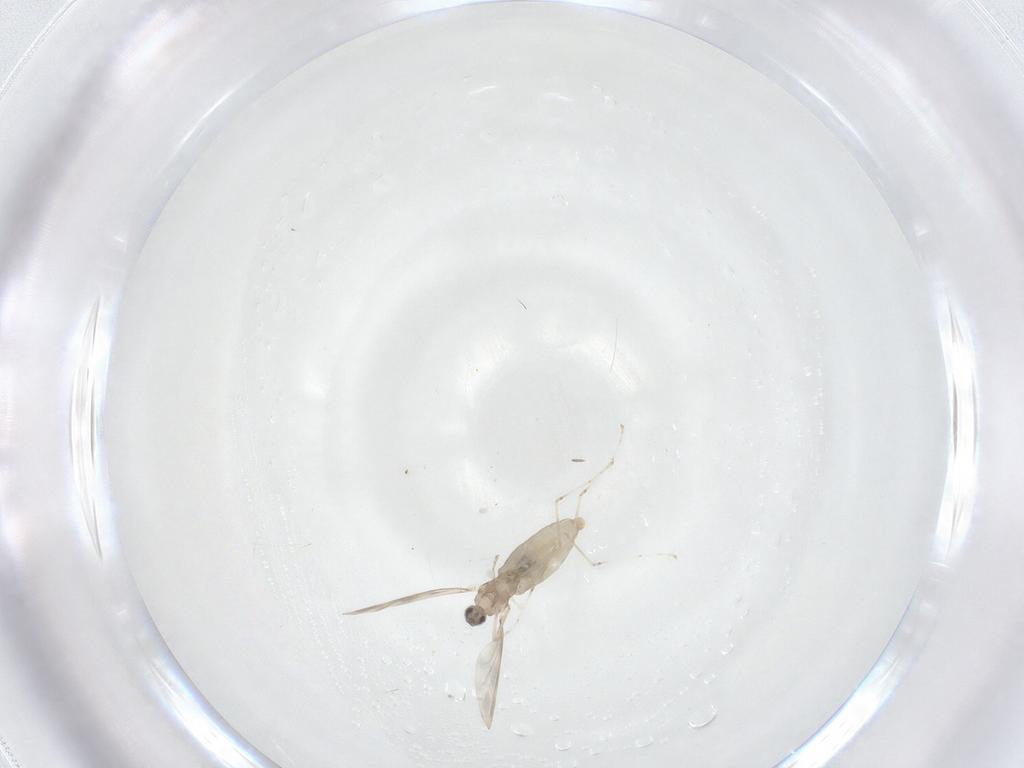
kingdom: Animalia
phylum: Arthropoda
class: Insecta
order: Diptera
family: Cecidomyiidae
